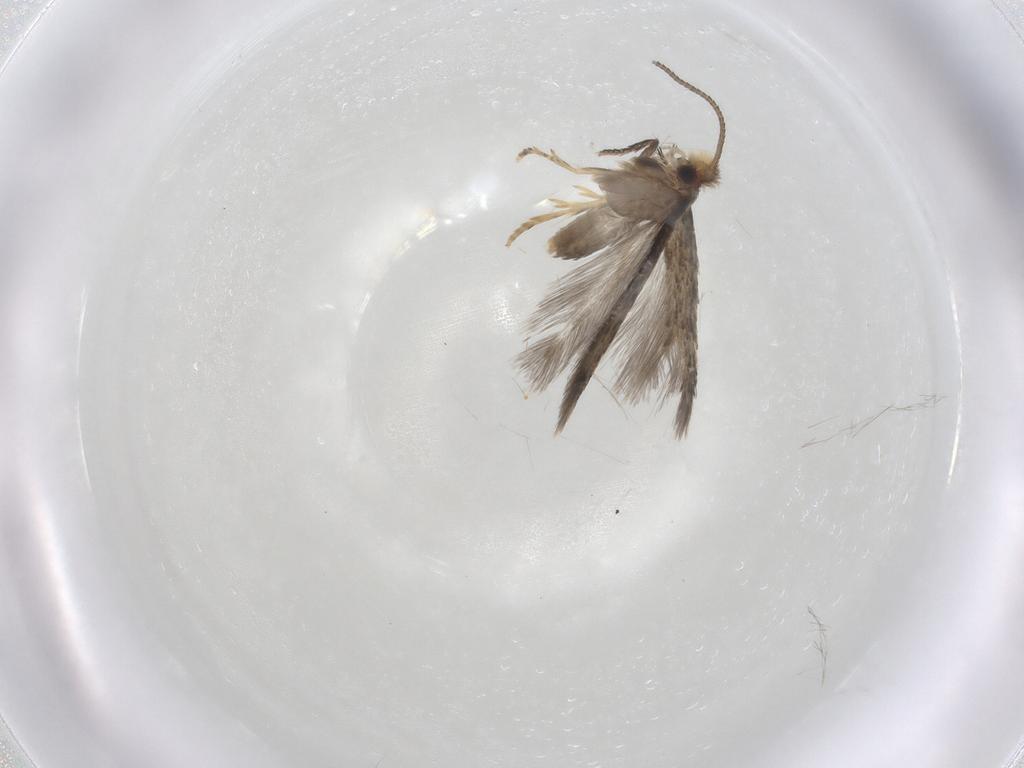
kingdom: Animalia
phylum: Arthropoda
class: Insecta
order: Lepidoptera
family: Nepticulidae
